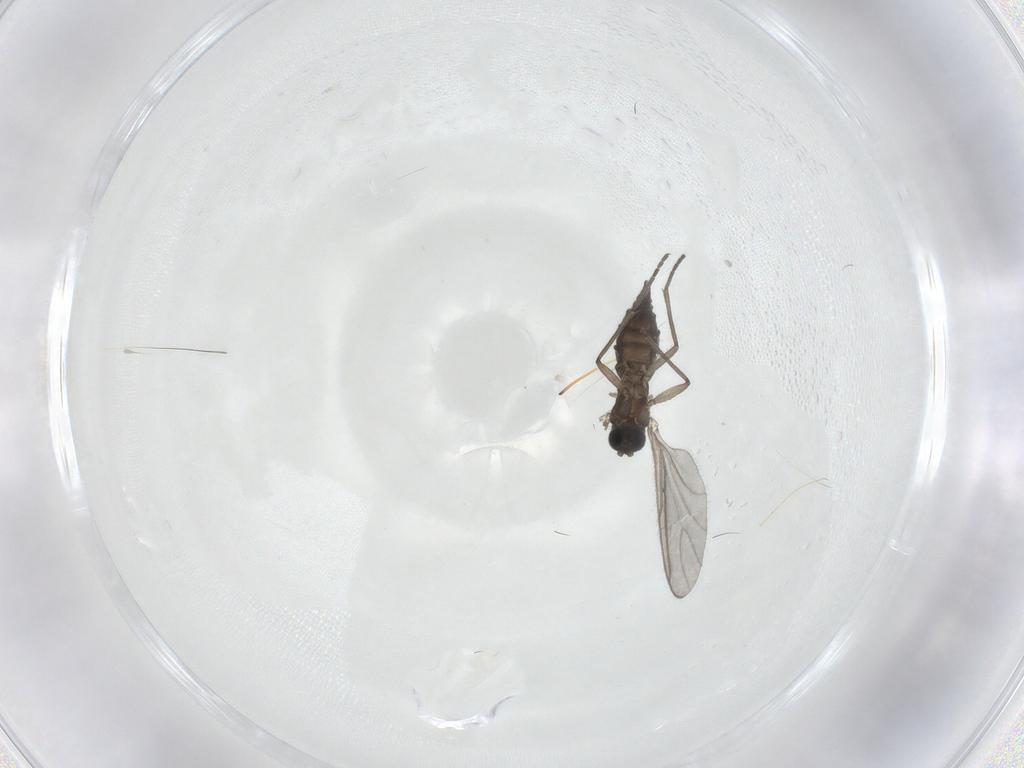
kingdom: Animalia
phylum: Arthropoda
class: Insecta
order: Diptera
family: Sciaridae
